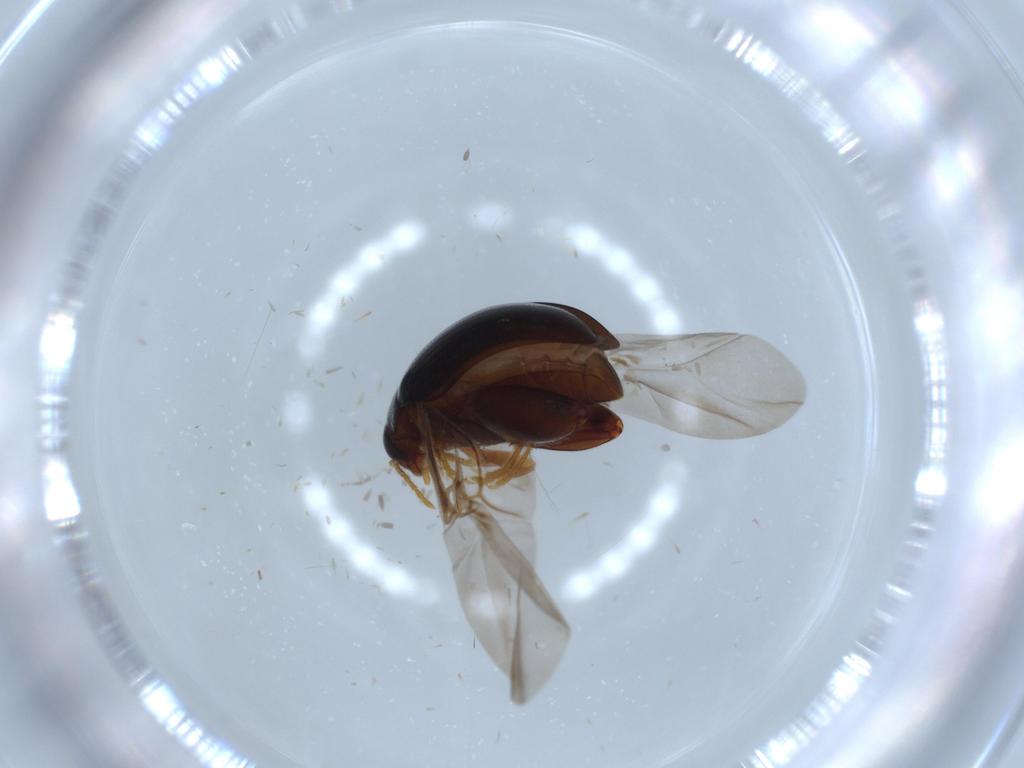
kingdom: Animalia
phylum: Arthropoda
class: Insecta
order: Coleoptera
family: Chrysomelidae
